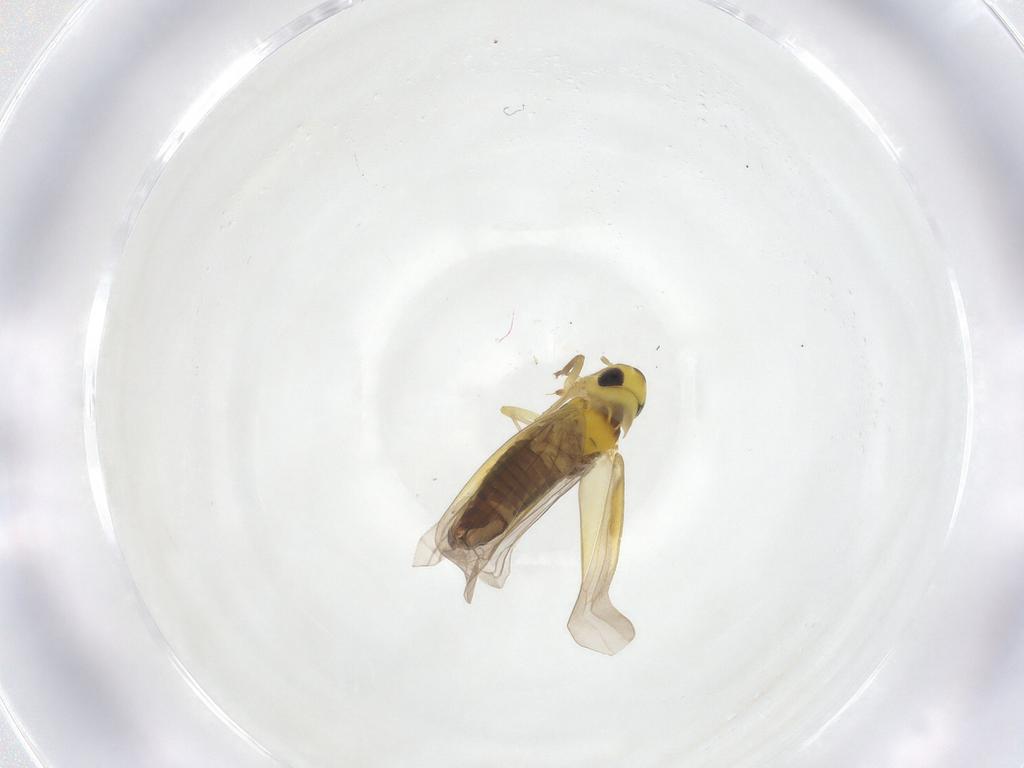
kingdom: Animalia
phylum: Arthropoda
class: Insecta
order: Hemiptera
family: Cicadellidae
